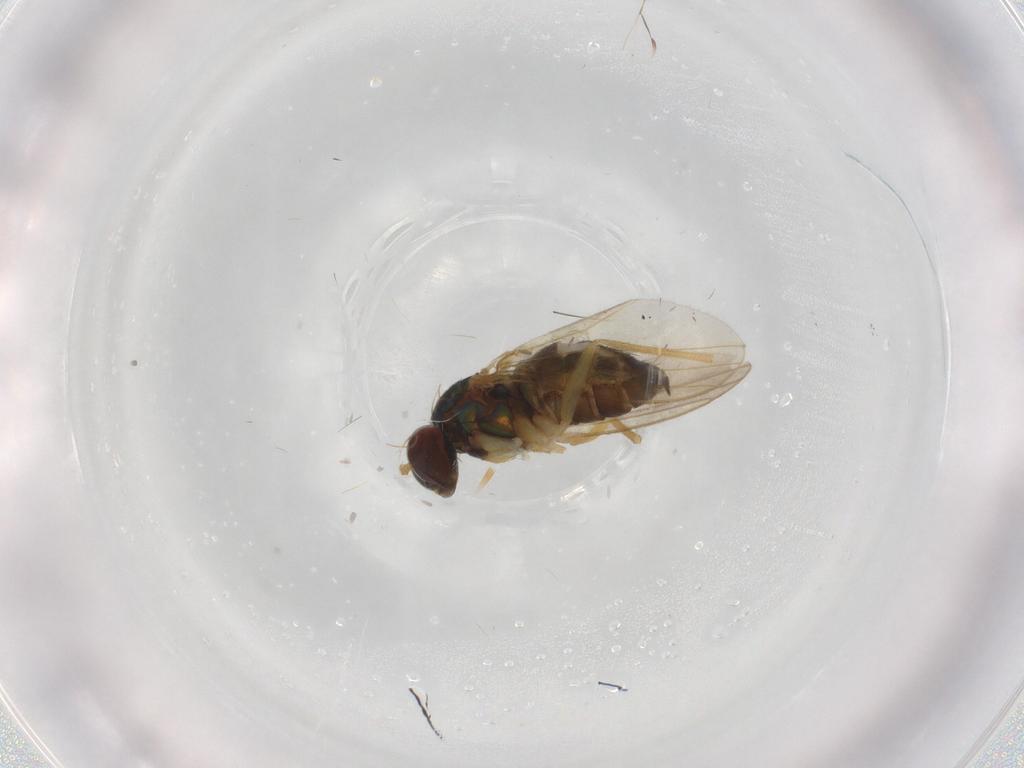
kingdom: Animalia
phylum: Arthropoda
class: Insecta
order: Diptera
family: Dolichopodidae
